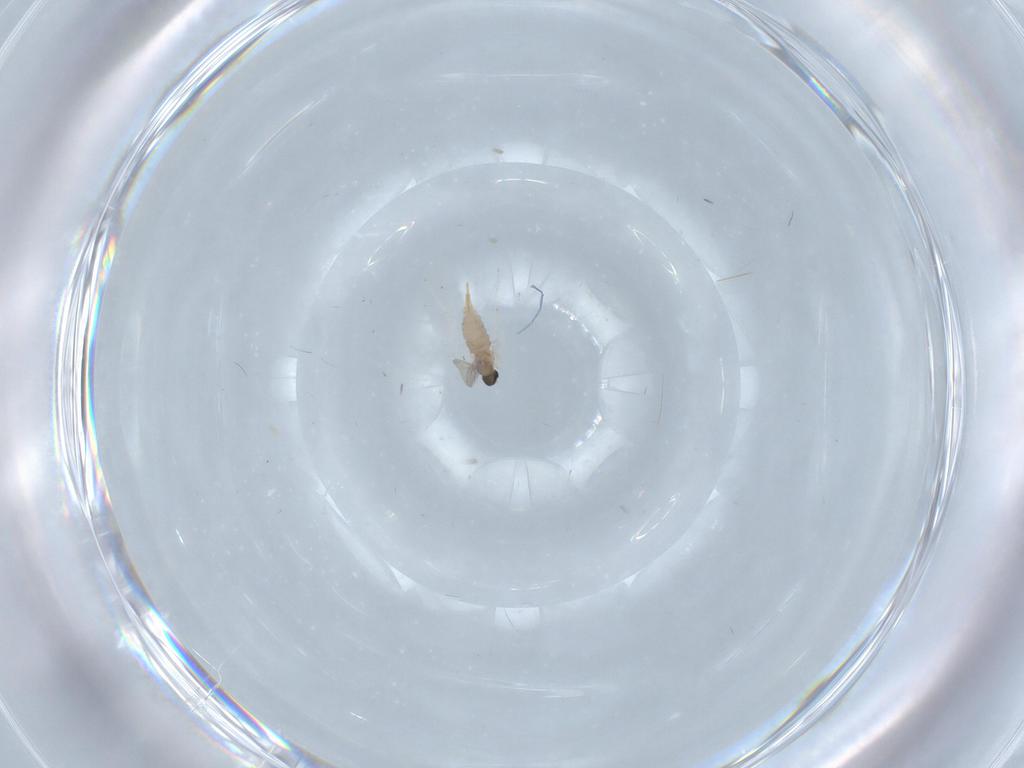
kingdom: Animalia
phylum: Arthropoda
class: Insecta
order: Diptera
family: Cecidomyiidae
